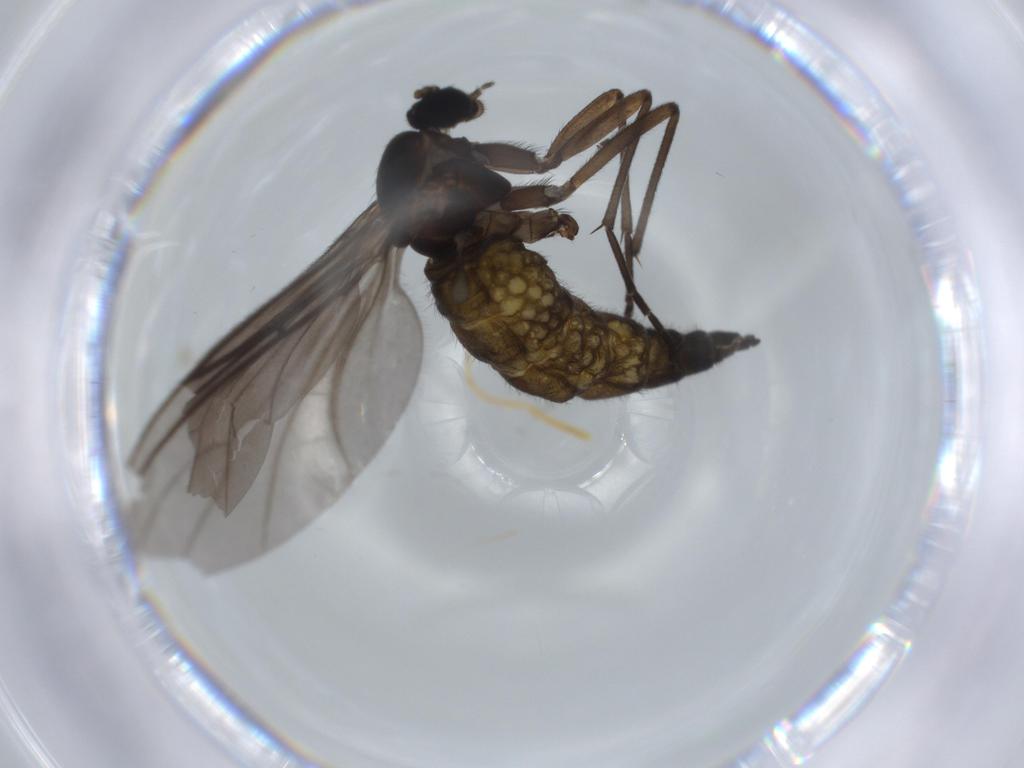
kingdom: Animalia
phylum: Arthropoda
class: Insecta
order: Diptera
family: Sciaridae
